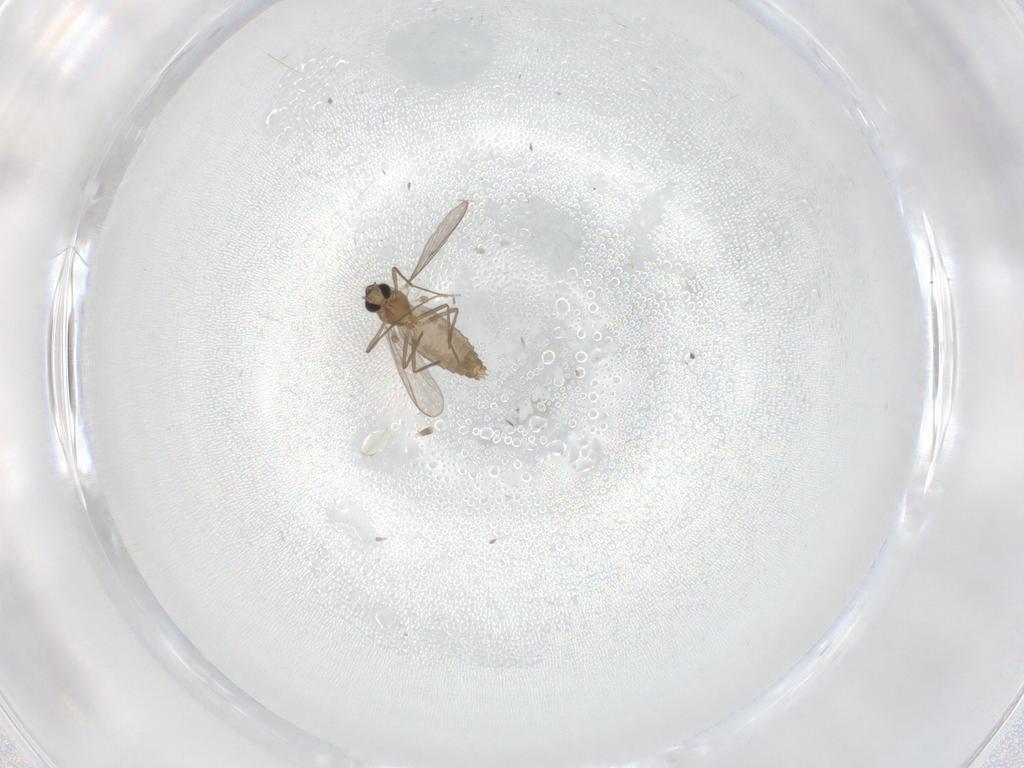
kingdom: Animalia
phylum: Arthropoda
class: Insecta
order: Diptera
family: Chironomidae
